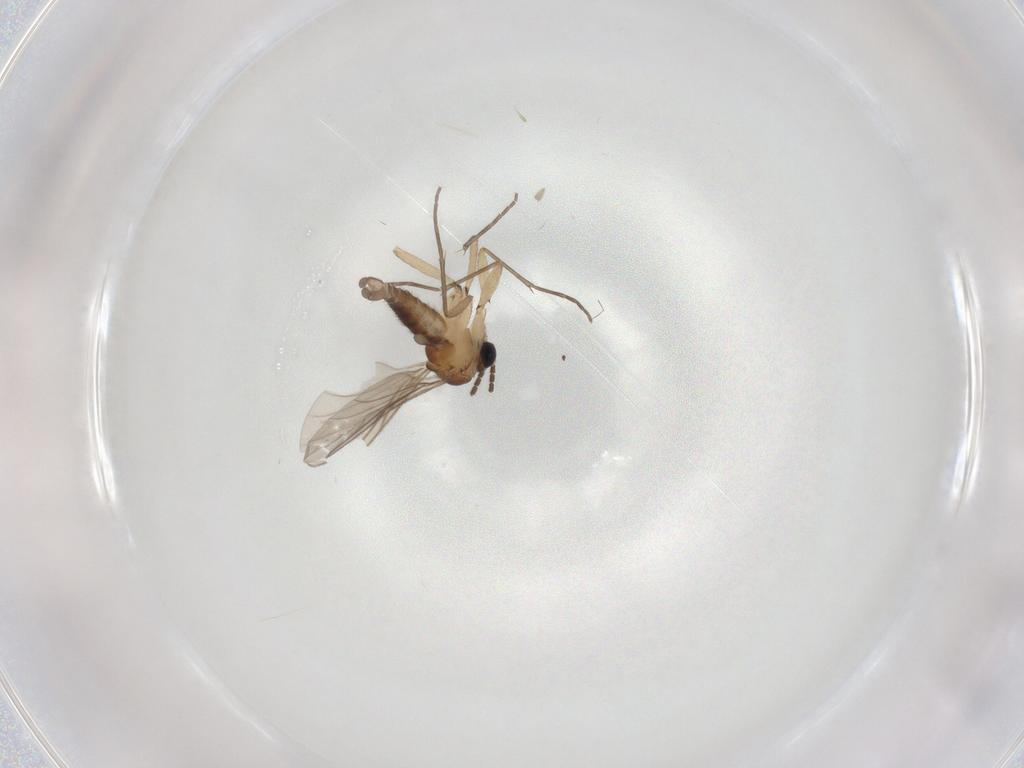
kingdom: Animalia
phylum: Arthropoda
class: Insecta
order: Diptera
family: Sciaridae
